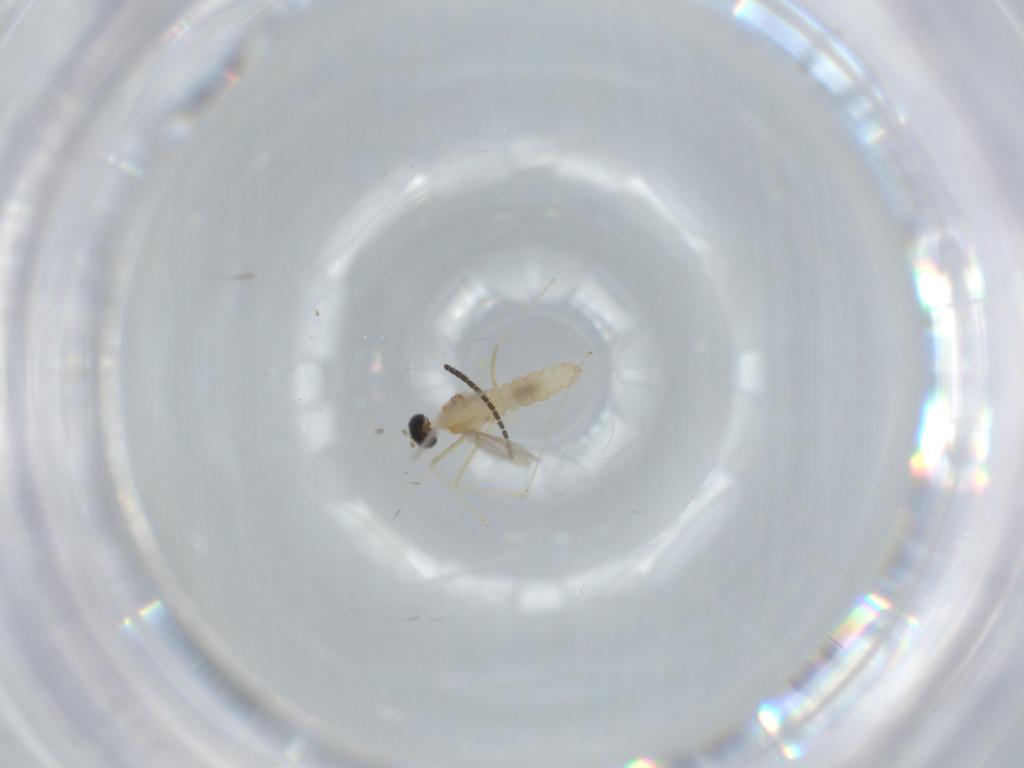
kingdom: Animalia
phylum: Arthropoda
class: Insecta
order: Diptera
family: Cecidomyiidae
